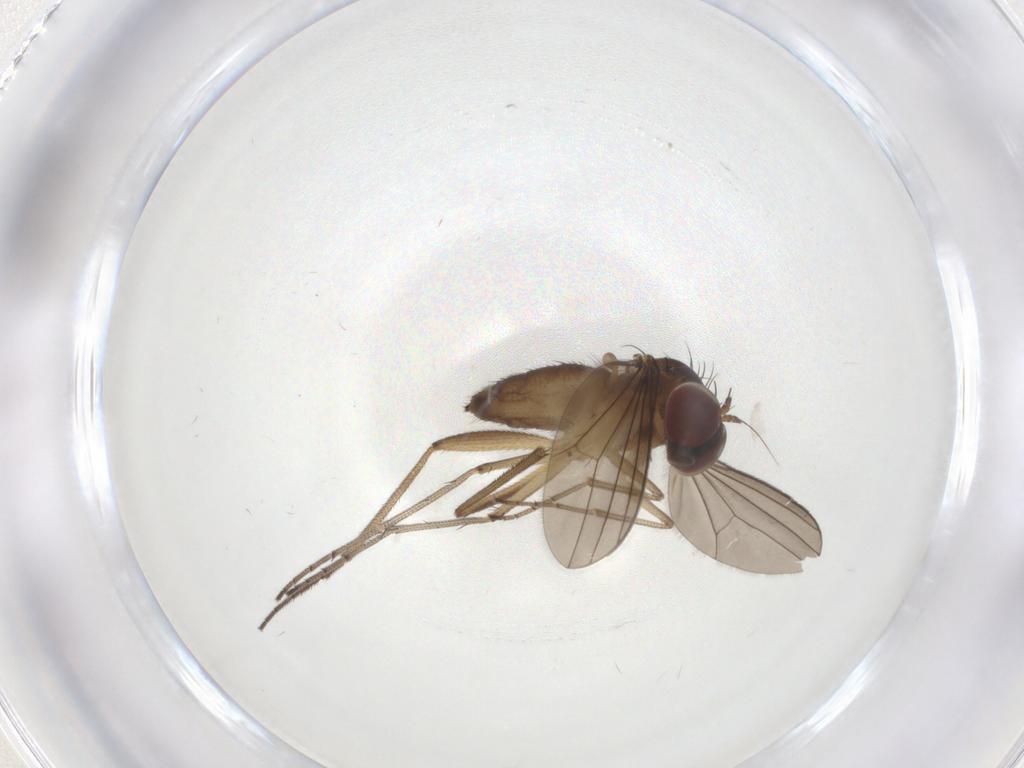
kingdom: Animalia
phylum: Arthropoda
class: Insecta
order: Diptera
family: Dolichopodidae
